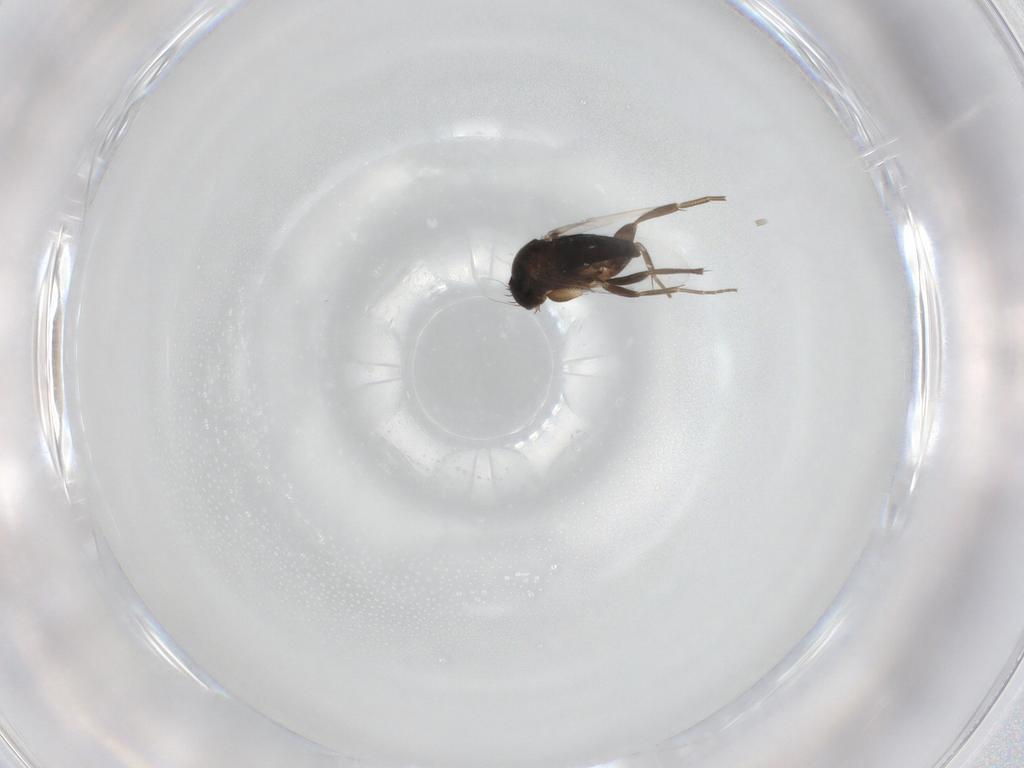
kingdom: Animalia
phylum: Arthropoda
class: Insecta
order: Diptera
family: Phoridae
